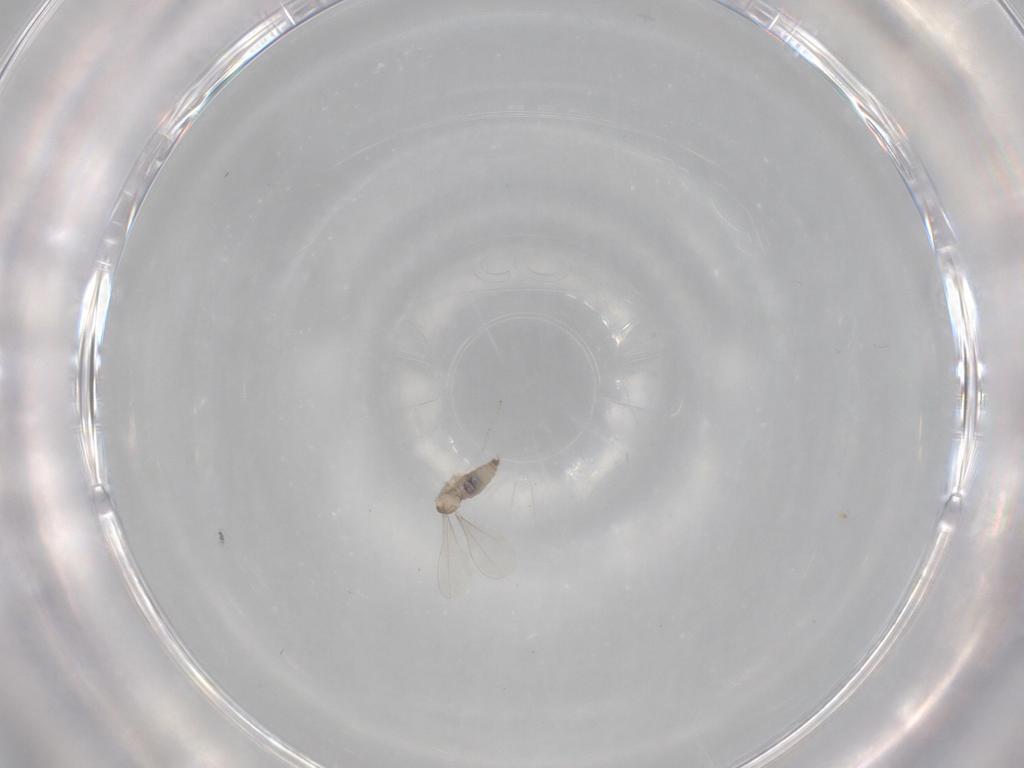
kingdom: Animalia
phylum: Arthropoda
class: Insecta
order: Diptera
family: Cecidomyiidae
